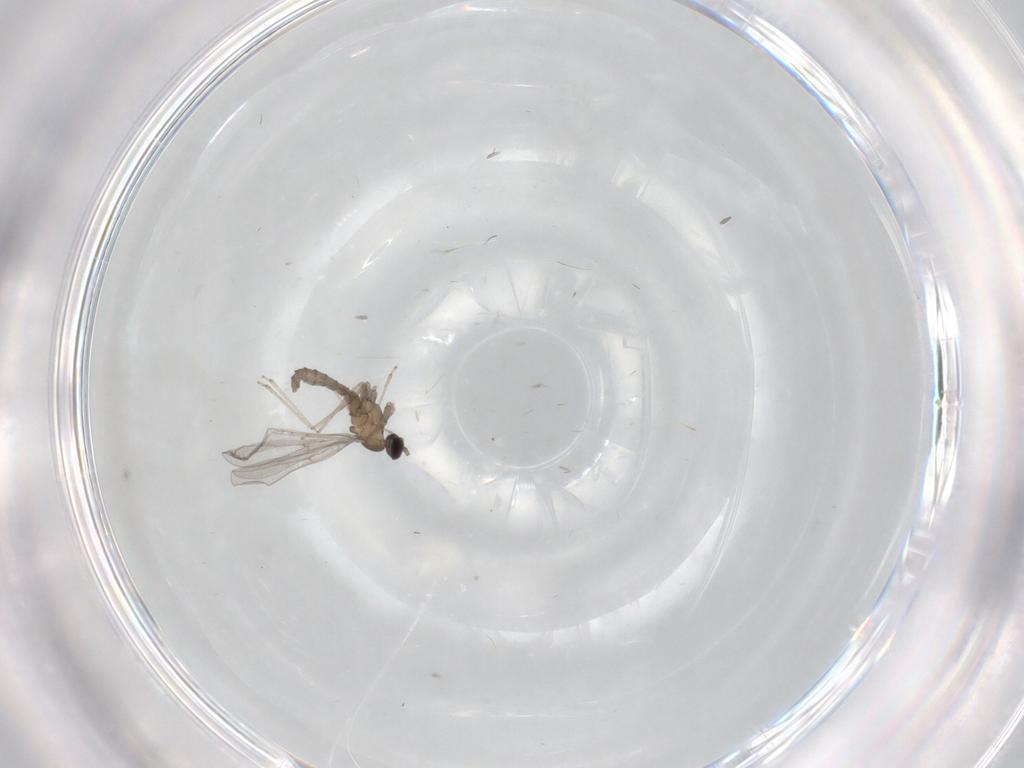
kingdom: Animalia
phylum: Arthropoda
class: Insecta
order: Diptera
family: Cecidomyiidae
